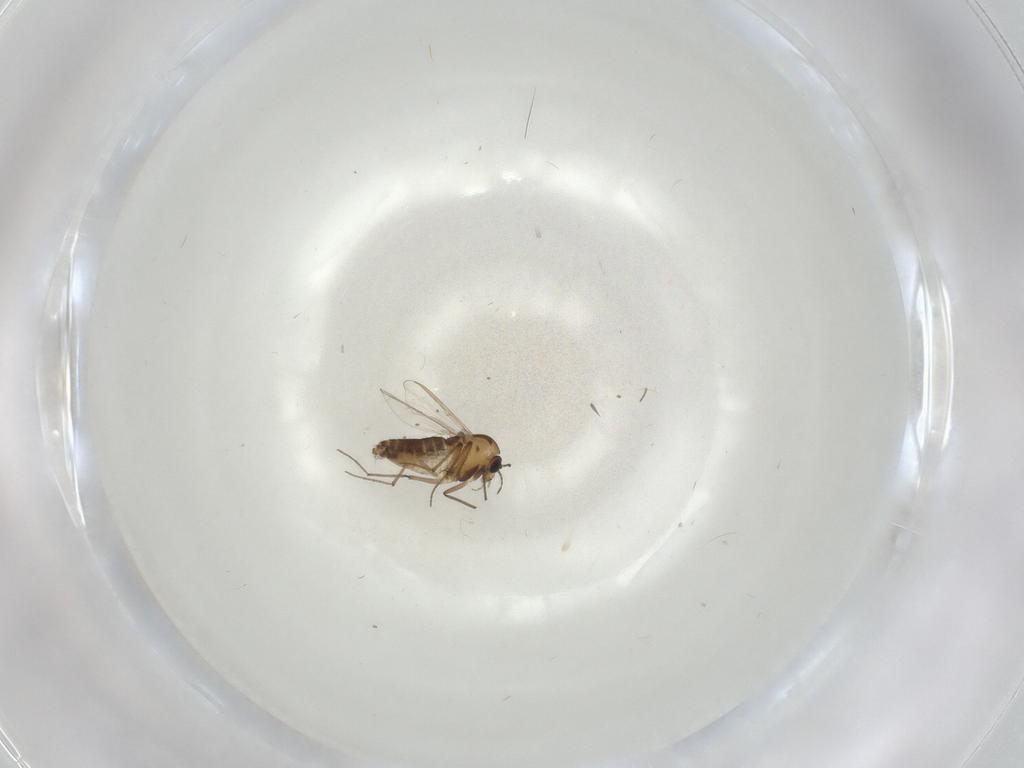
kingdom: Animalia
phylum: Arthropoda
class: Insecta
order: Diptera
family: Chironomidae
